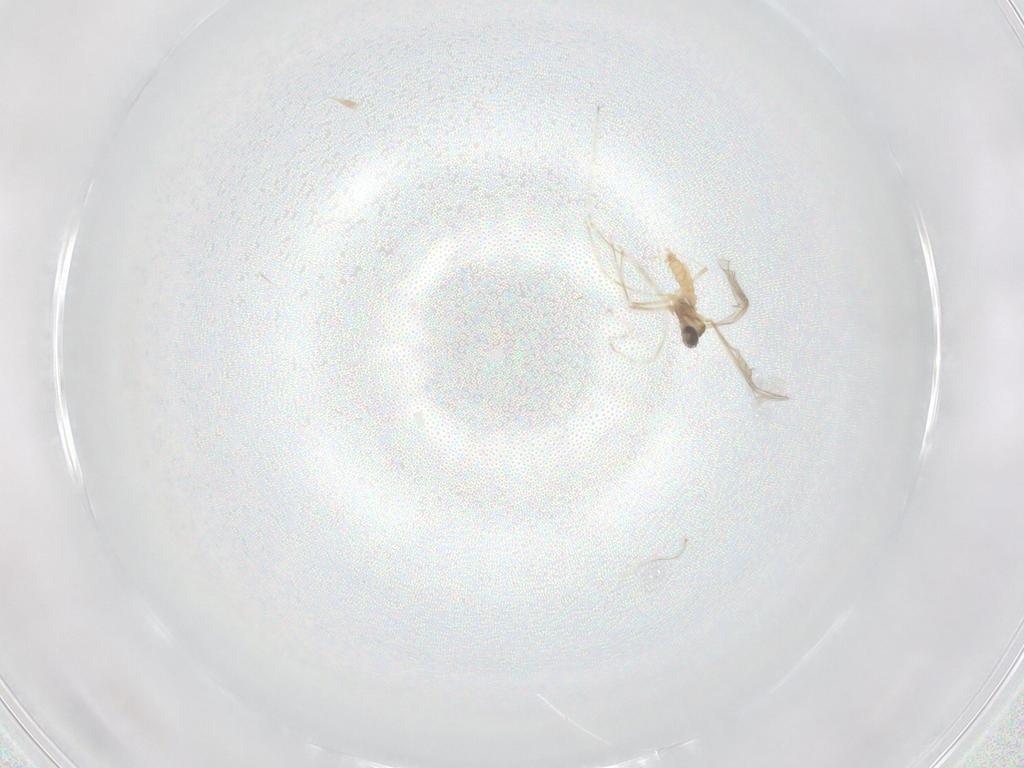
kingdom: Animalia
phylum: Arthropoda
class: Insecta
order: Diptera
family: Cecidomyiidae
